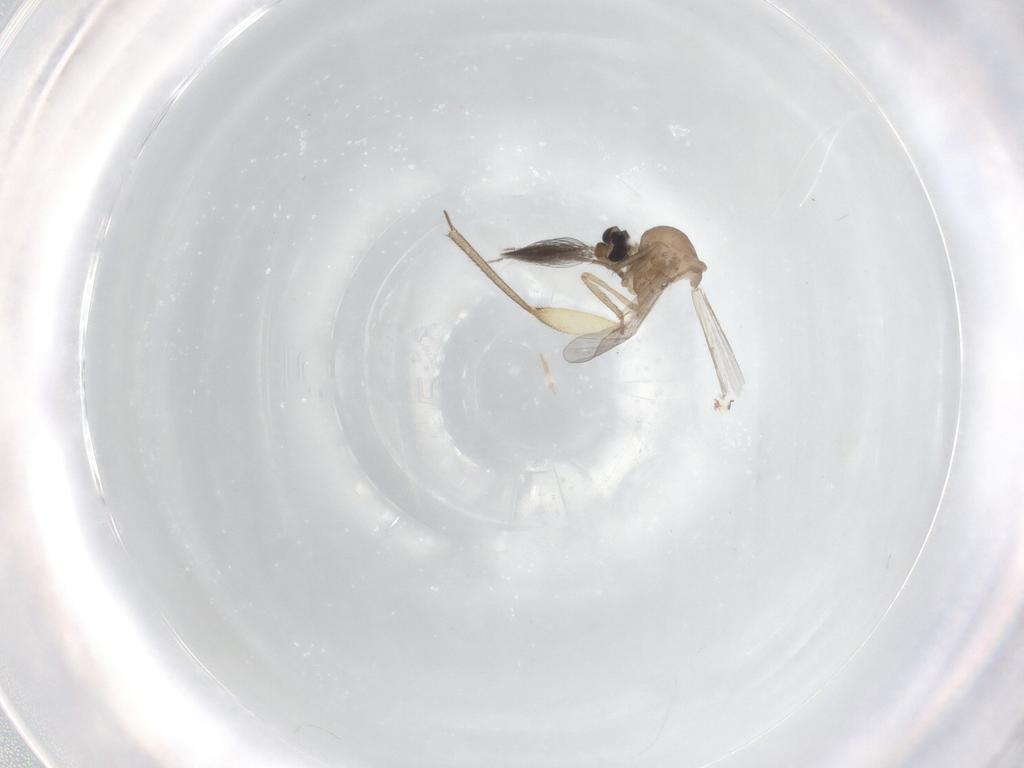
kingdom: Animalia
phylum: Arthropoda
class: Insecta
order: Diptera
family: Ceratopogonidae
